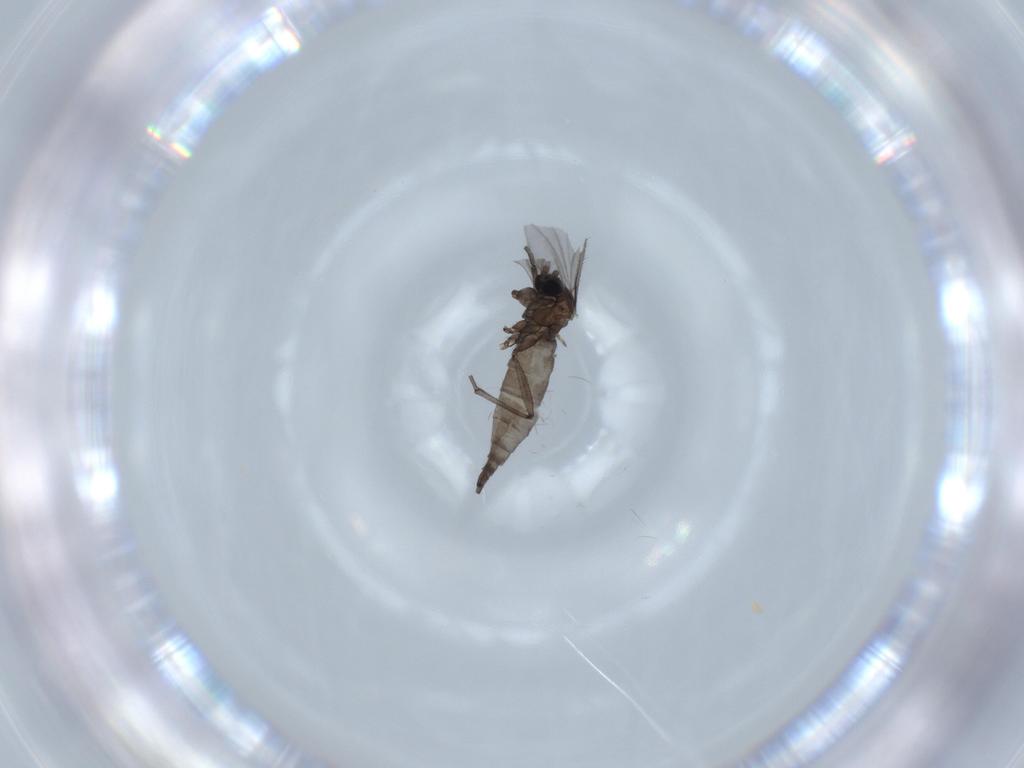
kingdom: Animalia
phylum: Arthropoda
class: Insecta
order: Diptera
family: Sciaridae
